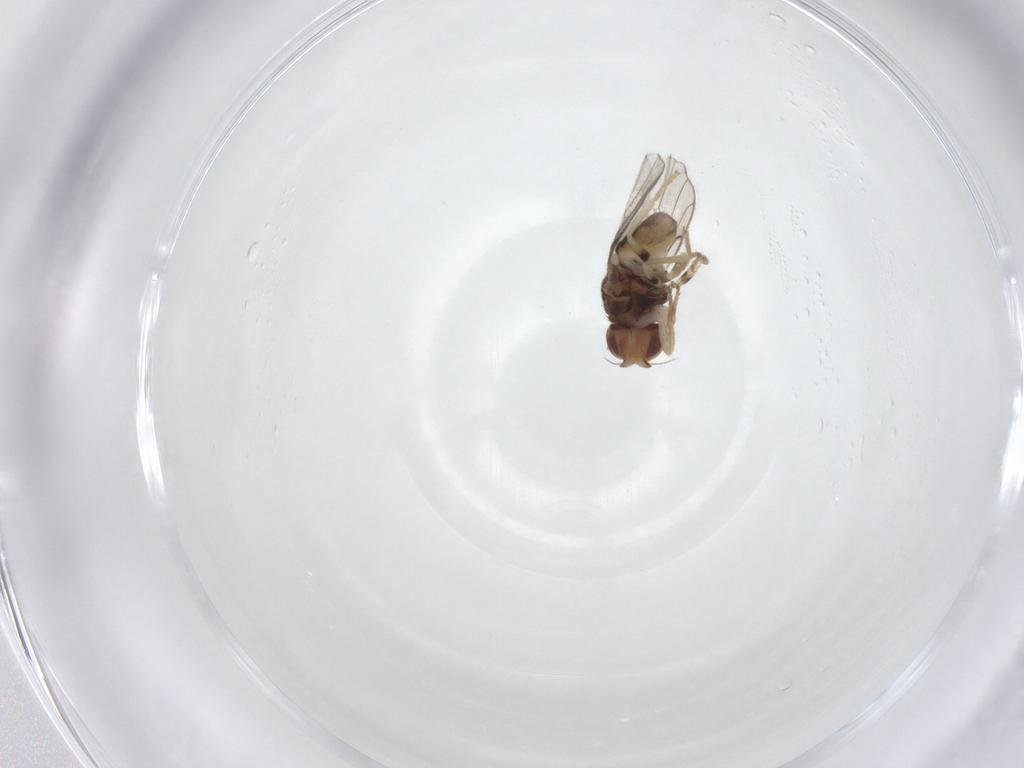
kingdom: Animalia
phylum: Arthropoda
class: Insecta
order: Diptera
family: Chloropidae
